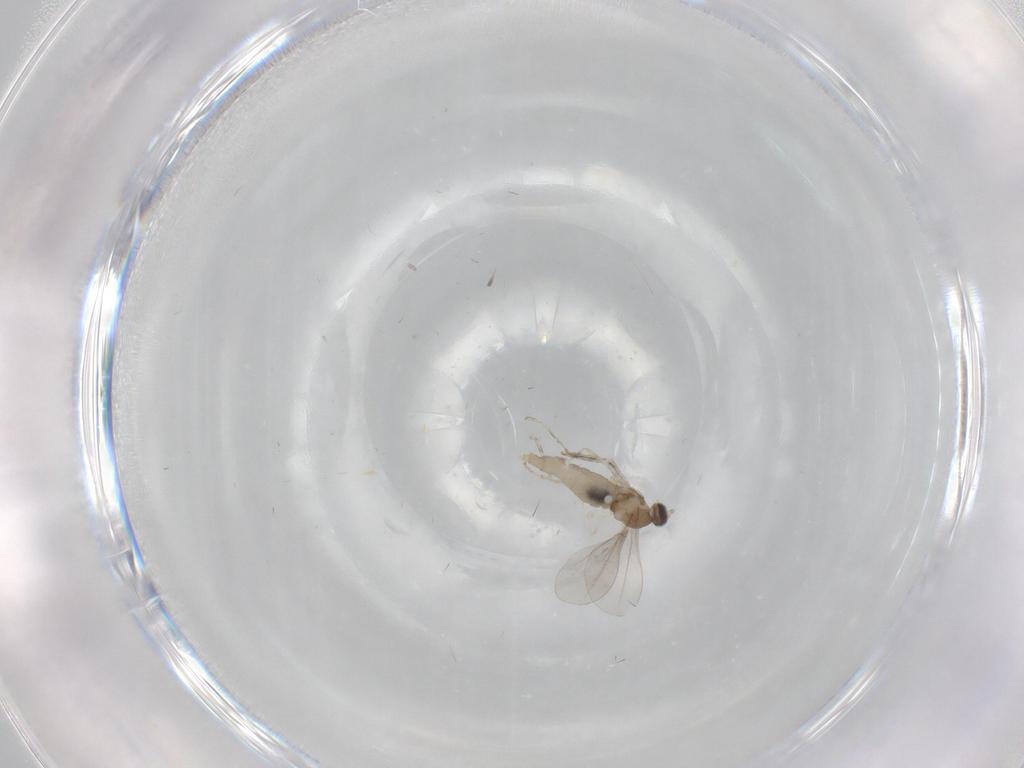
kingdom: Animalia
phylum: Arthropoda
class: Insecta
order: Diptera
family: Cecidomyiidae
